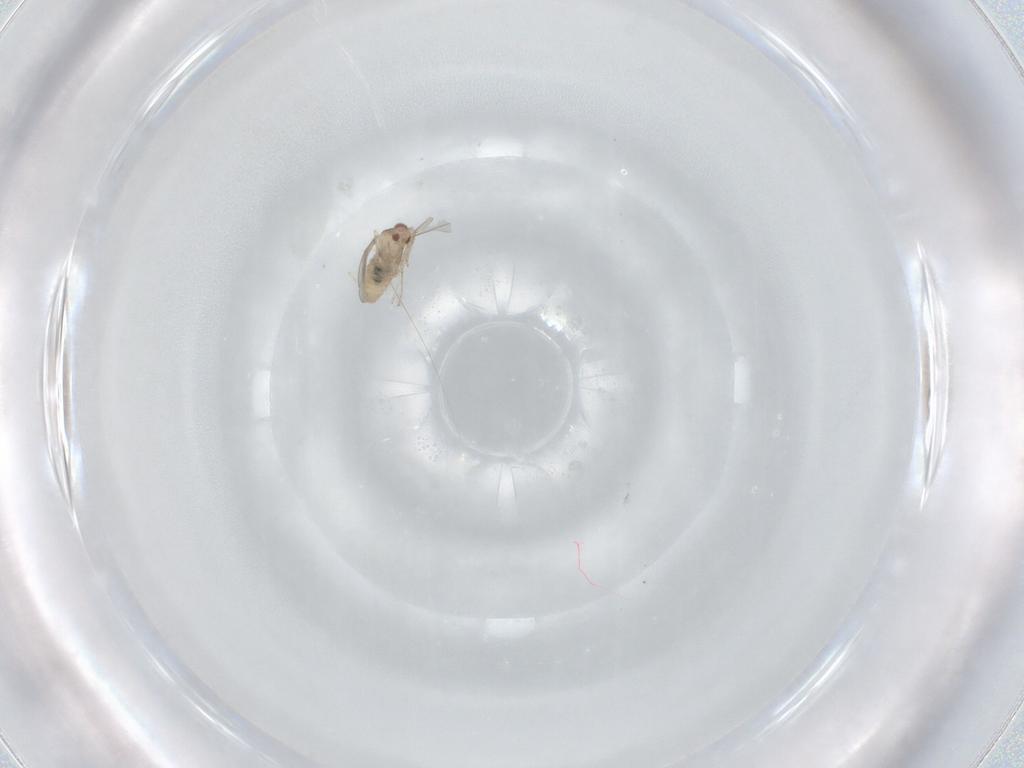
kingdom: Animalia
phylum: Arthropoda
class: Insecta
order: Diptera
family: Cecidomyiidae
